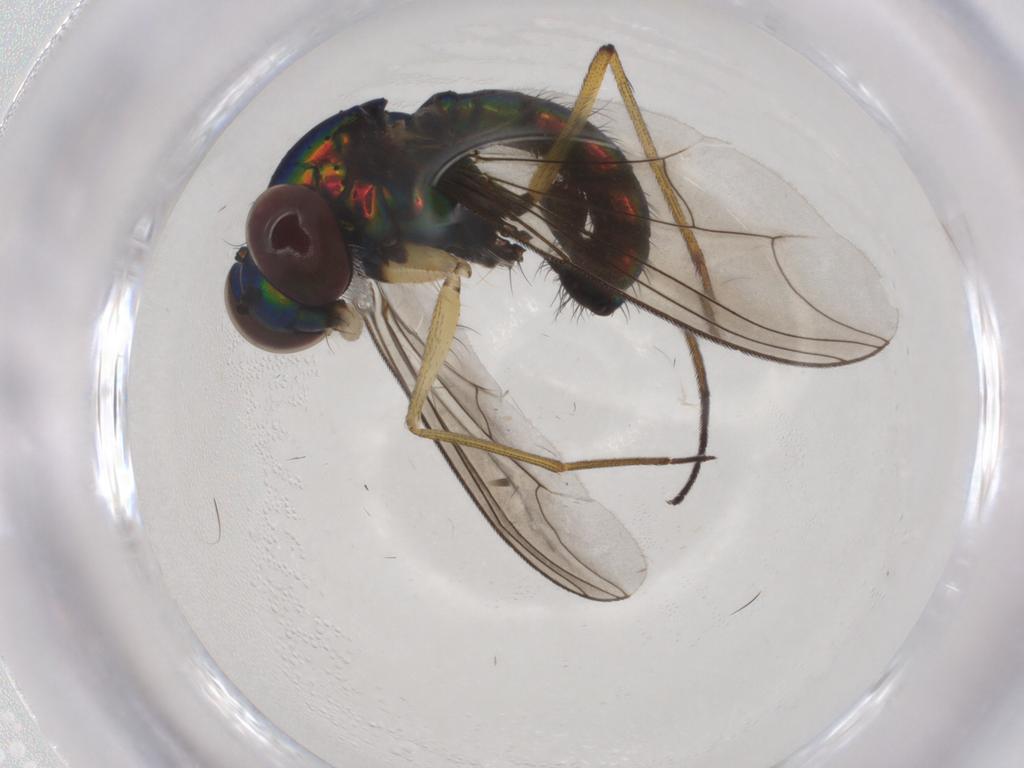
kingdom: Animalia
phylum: Arthropoda
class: Insecta
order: Diptera
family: Dolichopodidae
